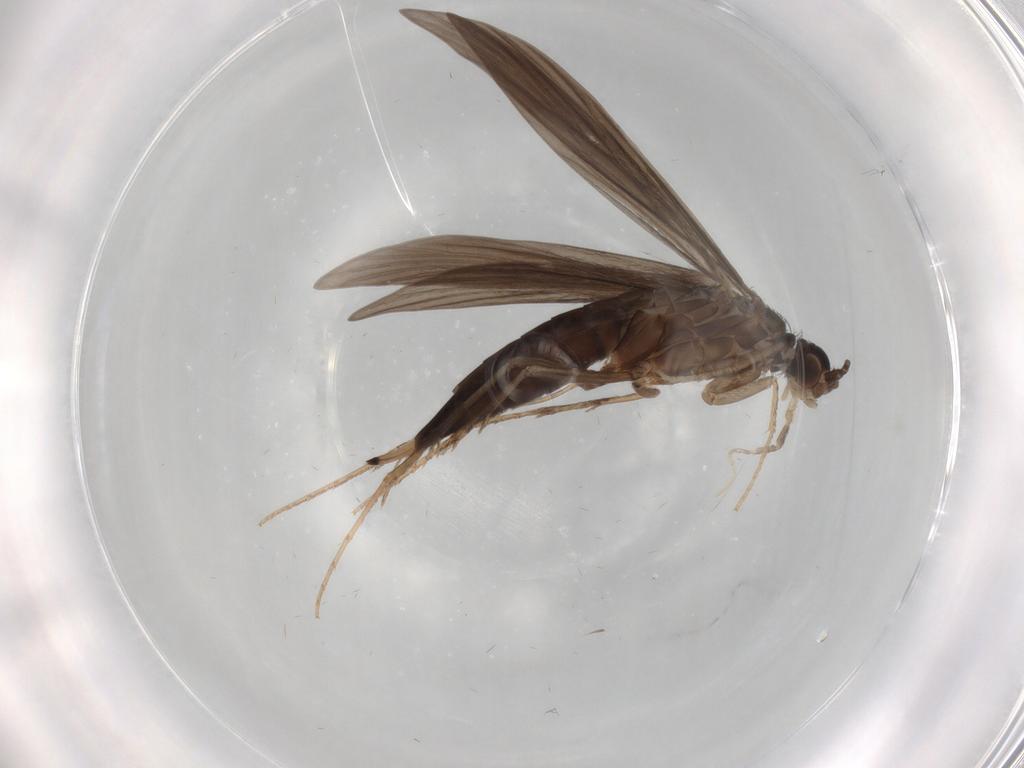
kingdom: Animalia
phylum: Arthropoda
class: Insecta
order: Trichoptera
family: Xiphocentronidae
